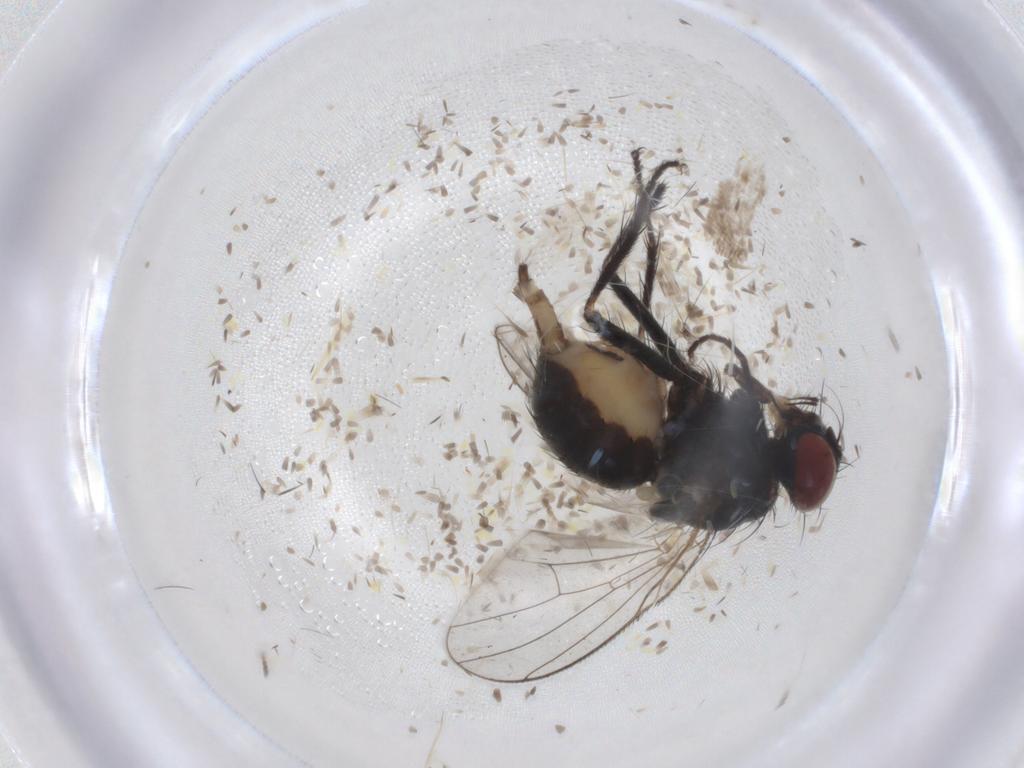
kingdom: Animalia
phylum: Arthropoda
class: Insecta
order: Diptera
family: Muscidae
